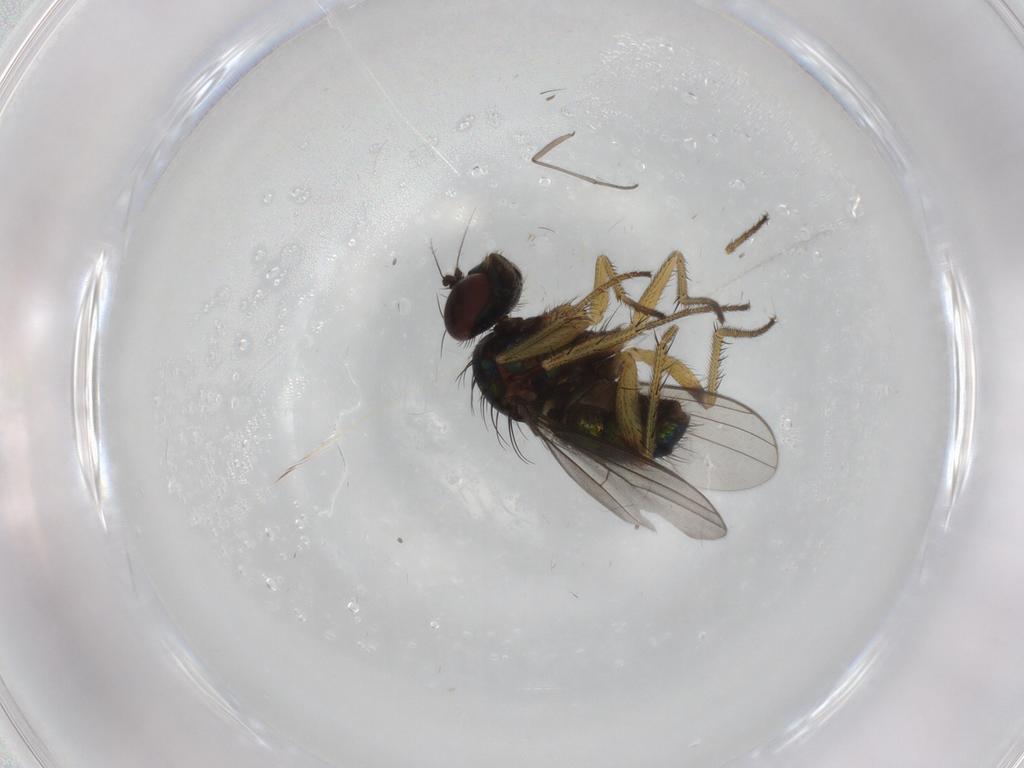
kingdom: Animalia
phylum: Arthropoda
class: Insecta
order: Diptera
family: Dolichopodidae
